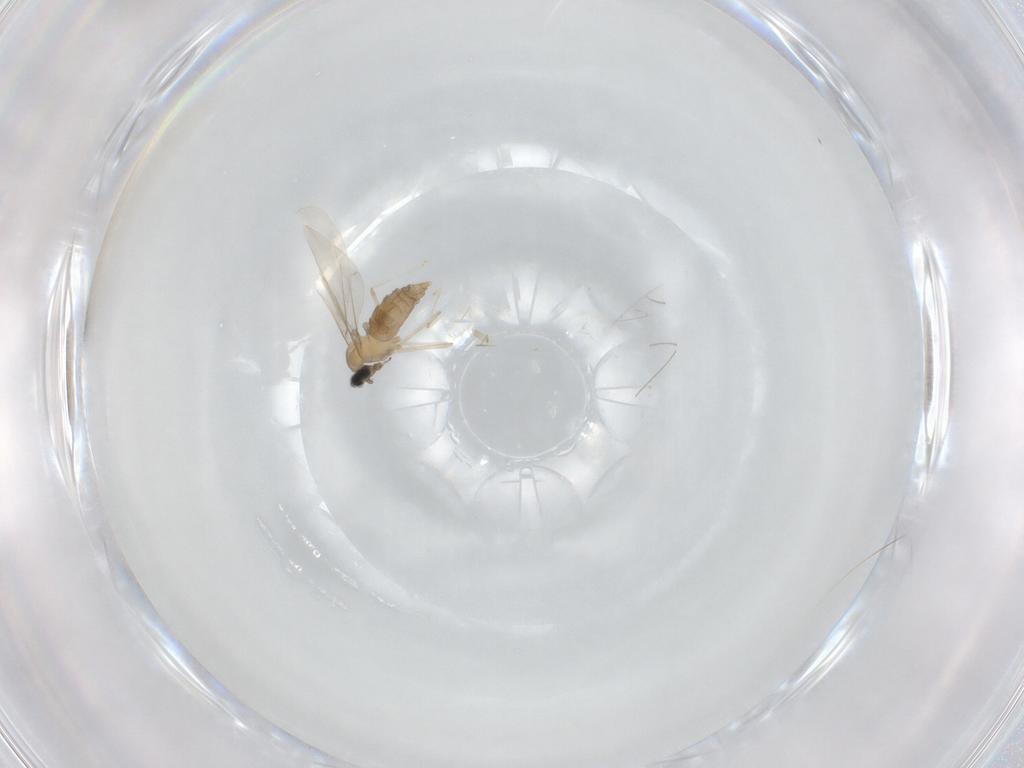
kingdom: Animalia
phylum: Arthropoda
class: Insecta
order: Diptera
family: Cecidomyiidae
